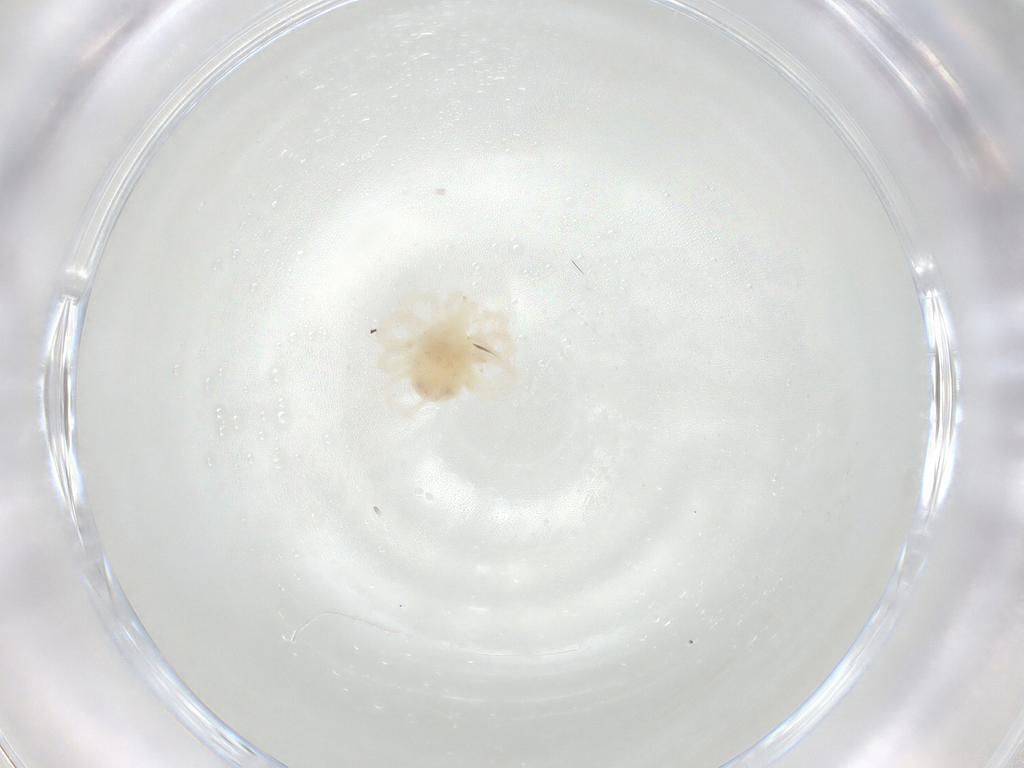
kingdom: Animalia
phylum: Arthropoda
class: Arachnida
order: Trombidiformes
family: Anystidae
